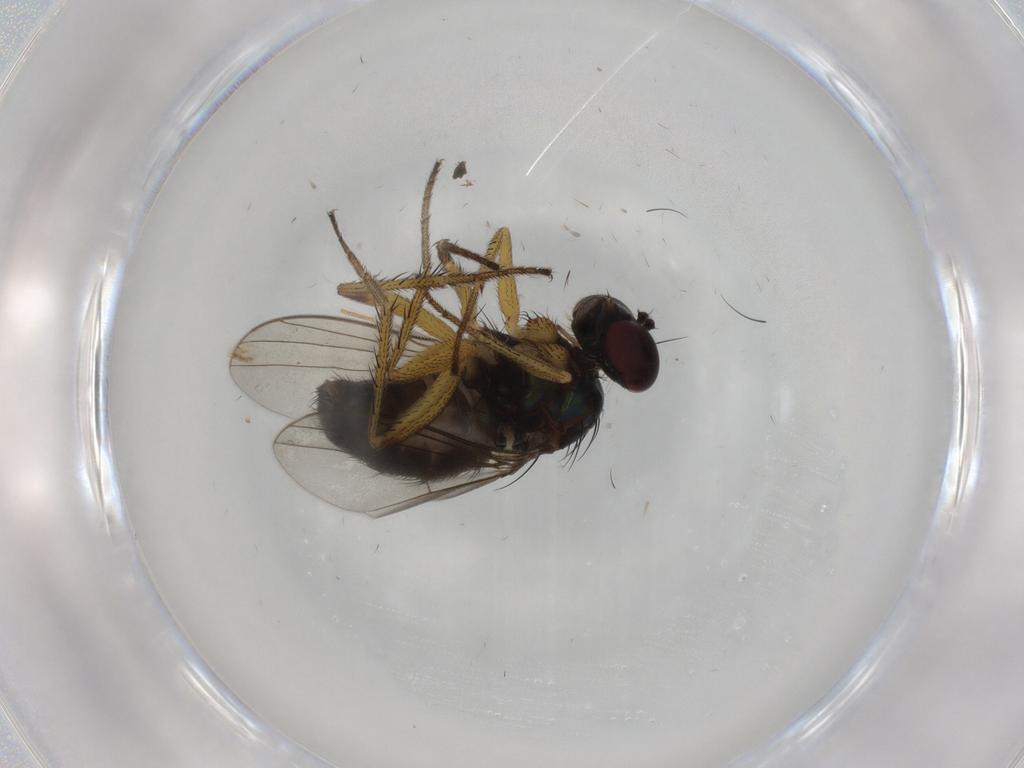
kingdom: Animalia
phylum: Arthropoda
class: Insecta
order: Diptera
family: Dolichopodidae
